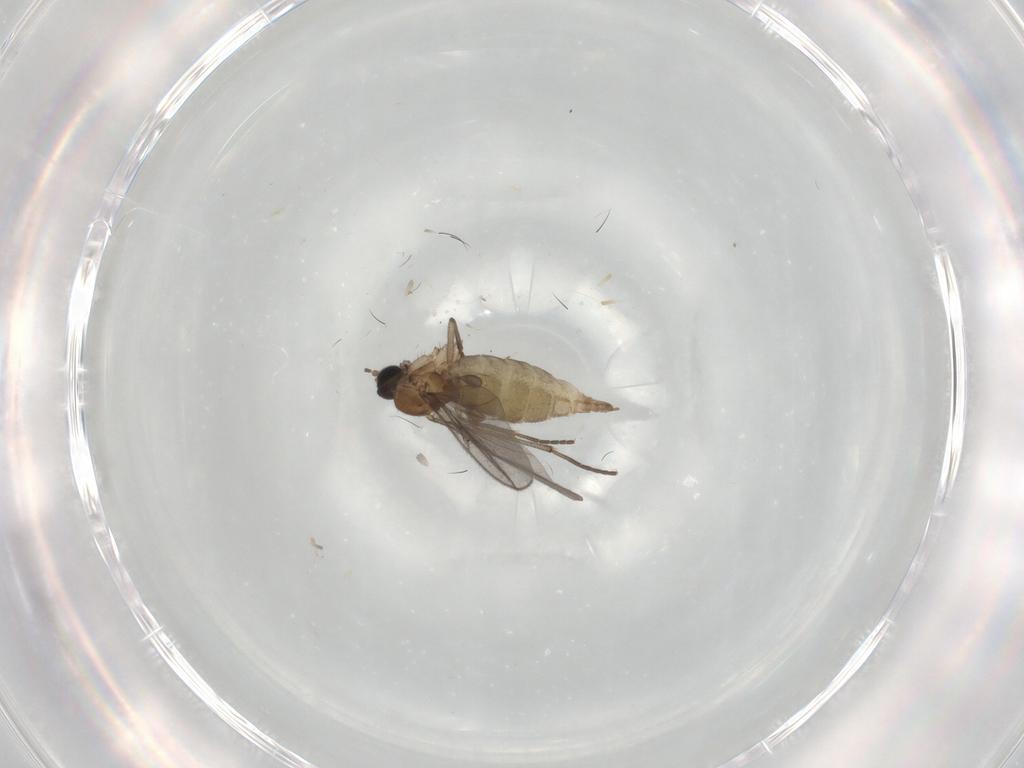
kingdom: Animalia
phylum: Arthropoda
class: Insecta
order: Diptera
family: Sciaridae
